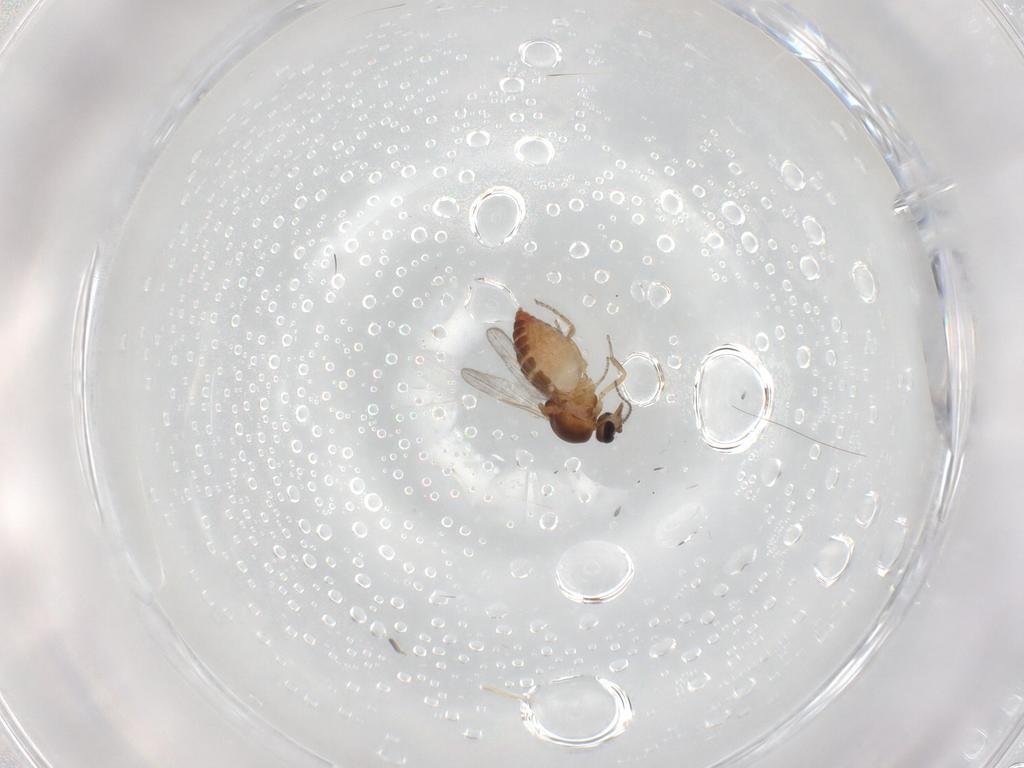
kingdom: Animalia
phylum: Arthropoda
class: Insecta
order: Diptera
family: Ceratopogonidae
